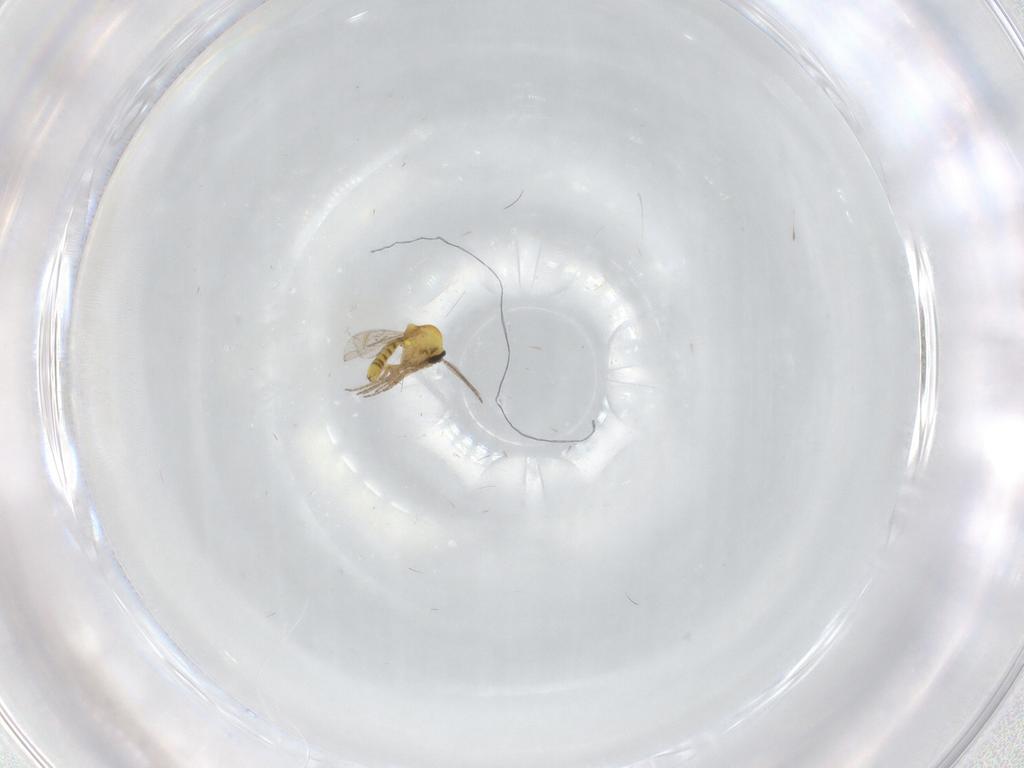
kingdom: Animalia
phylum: Arthropoda
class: Insecta
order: Diptera
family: Ceratopogonidae
